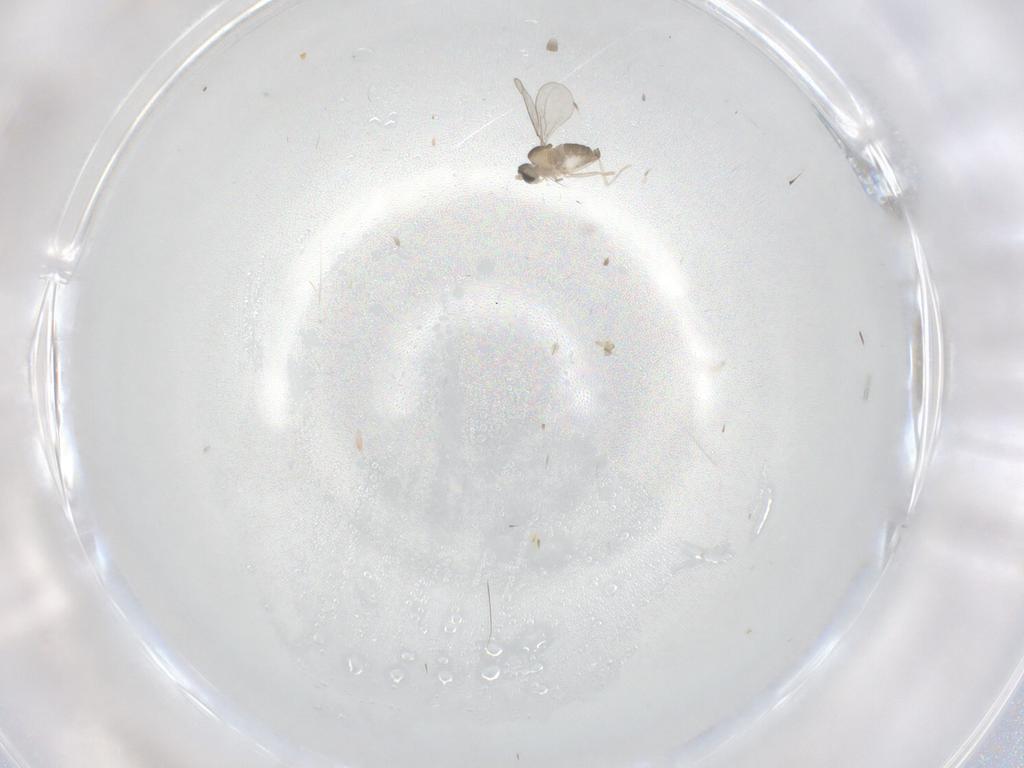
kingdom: Animalia
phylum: Arthropoda
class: Insecta
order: Diptera
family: Cecidomyiidae
